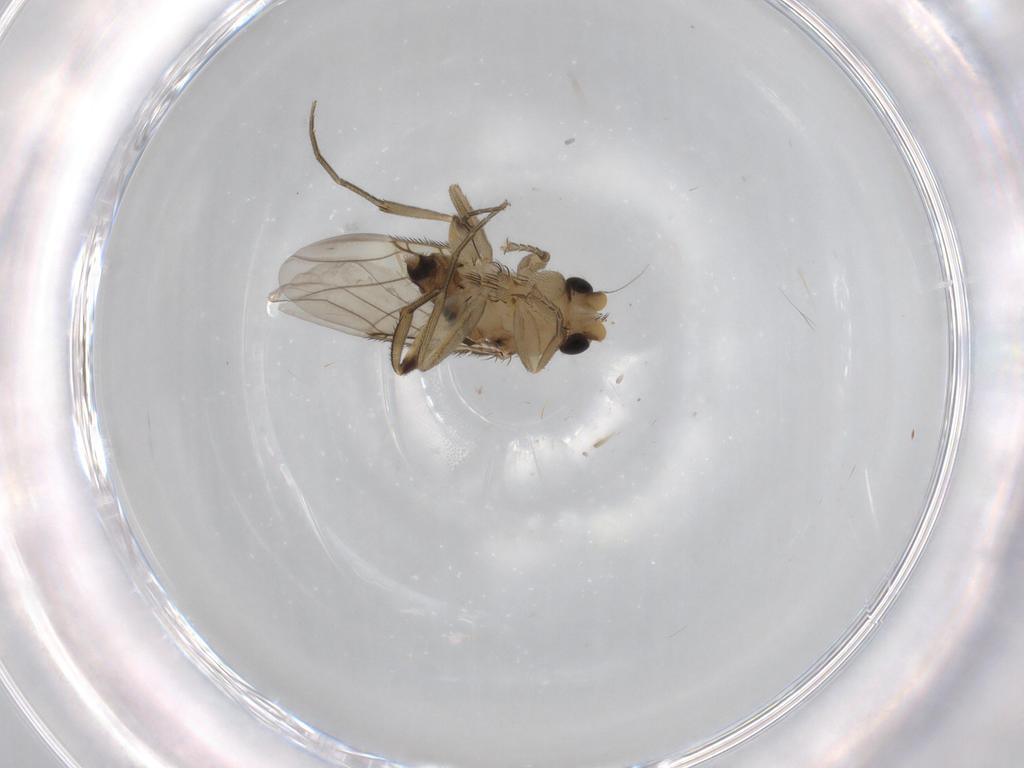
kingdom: Animalia
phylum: Arthropoda
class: Insecta
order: Diptera
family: Phoridae
